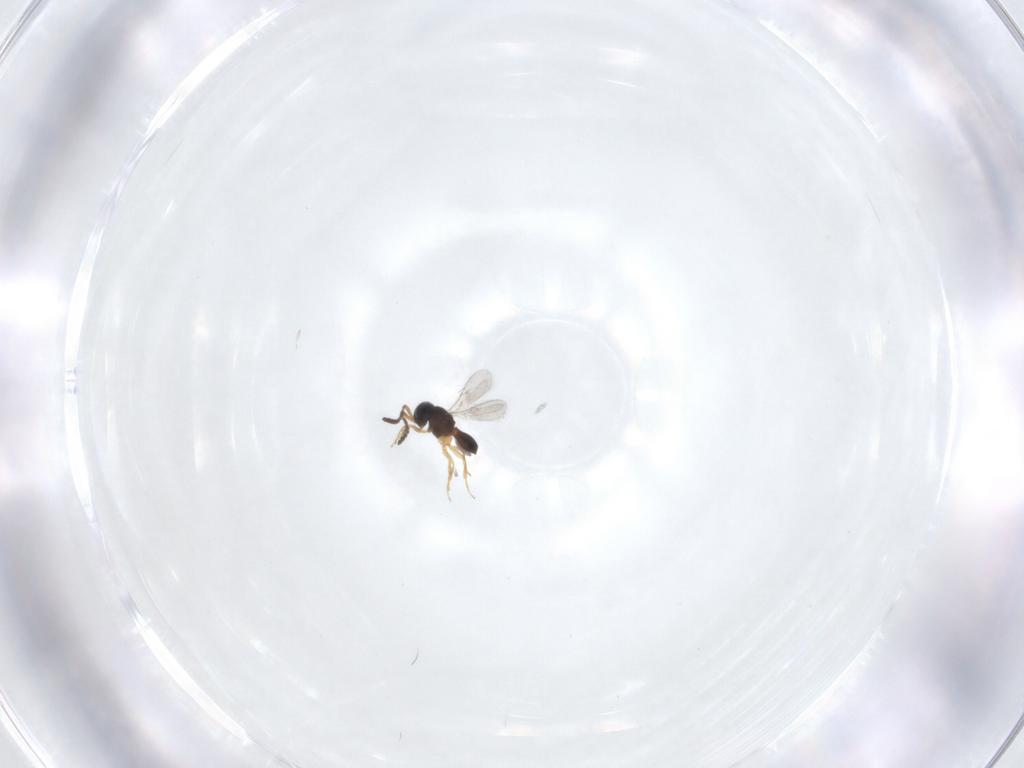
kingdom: Animalia
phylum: Arthropoda
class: Insecta
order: Hymenoptera
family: Scelionidae
